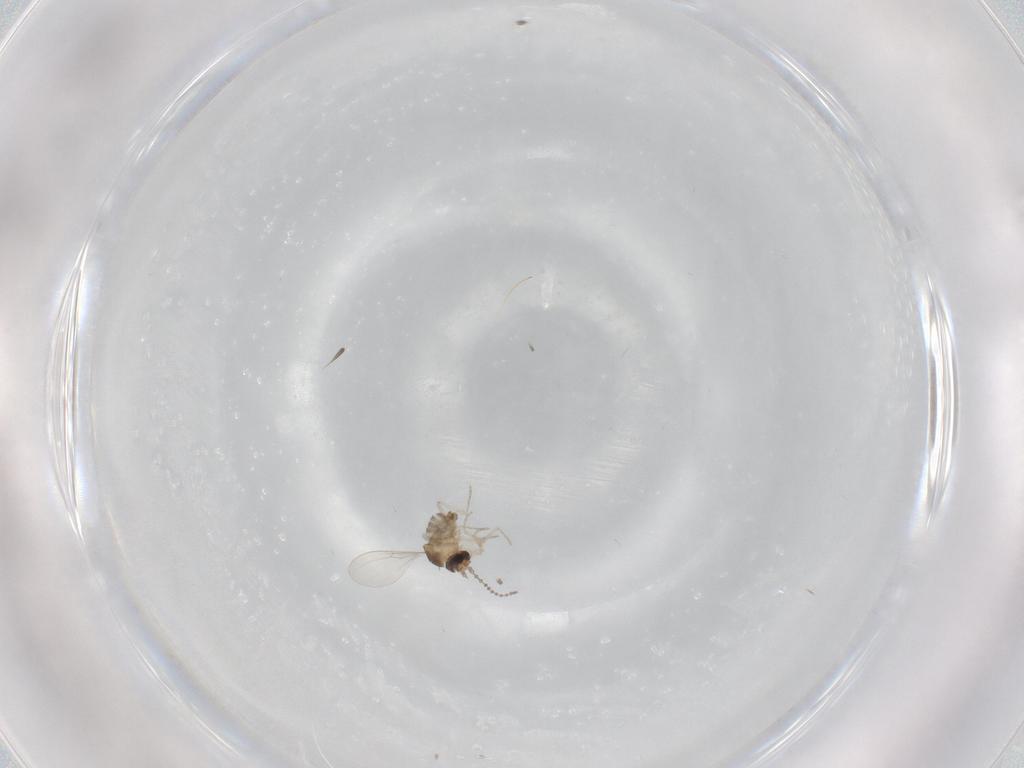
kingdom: Animalia
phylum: Arthropoda
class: Insecta
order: Diptera
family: Cecidomyiidae
